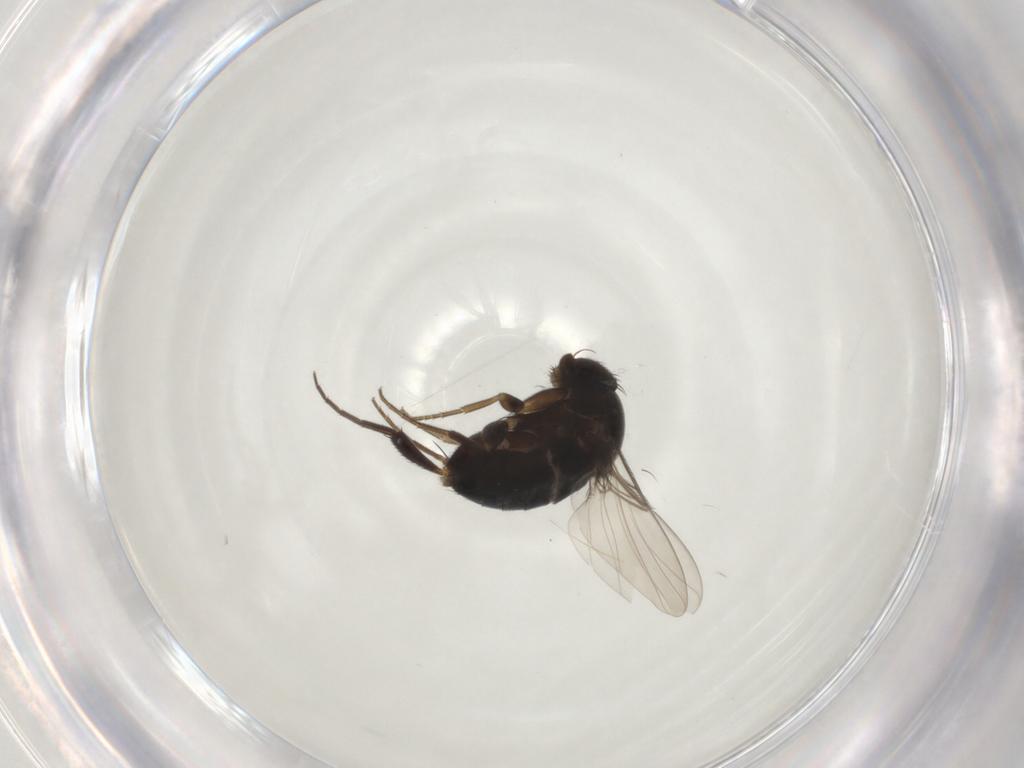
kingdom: Animalia
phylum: Arthropoda
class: Insecta
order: Diptera
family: Phoridae
